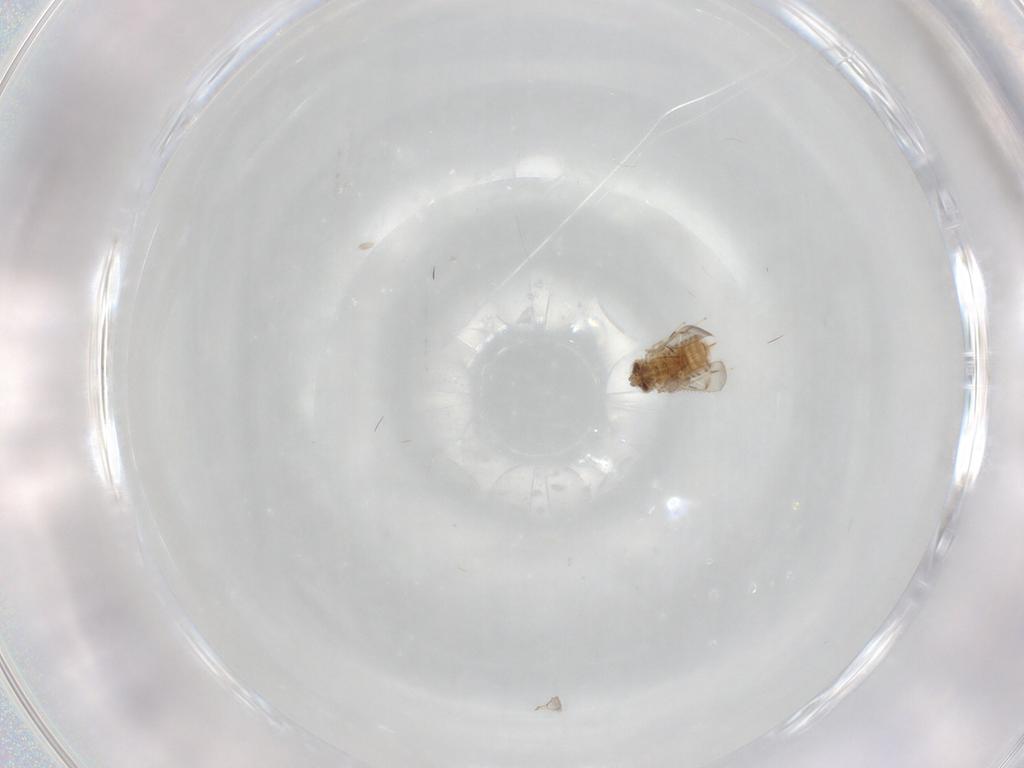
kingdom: Animalia
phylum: Arthropoda
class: Insecta
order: Hymenoptera
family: Aphelinidae
